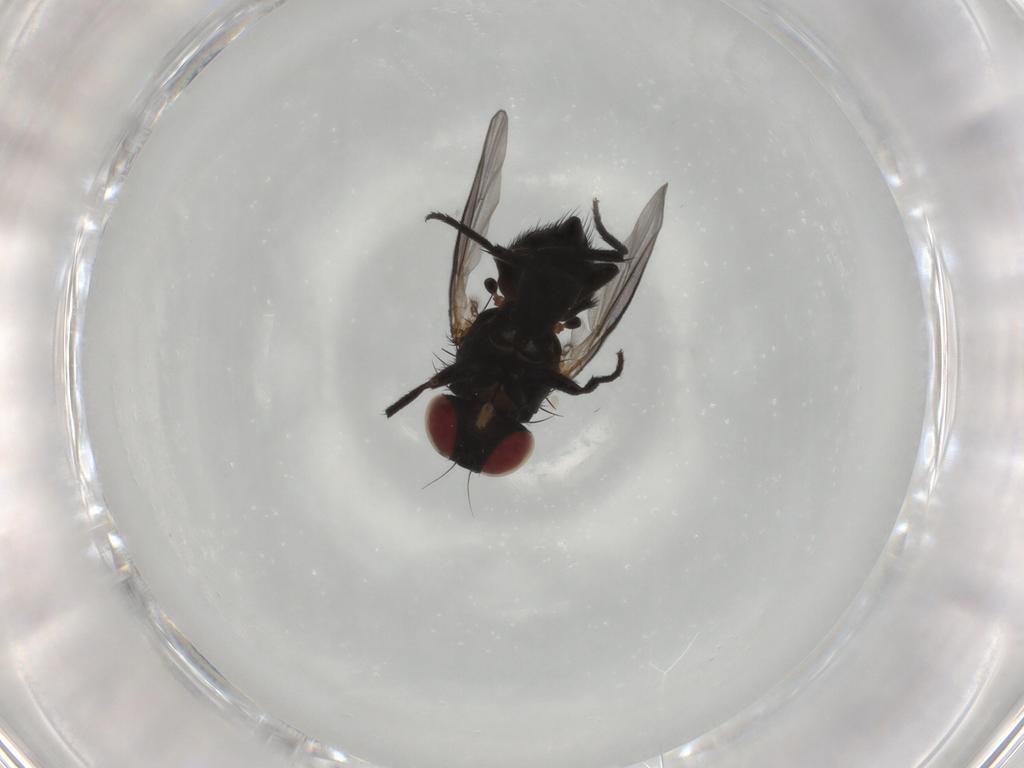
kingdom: Animalia
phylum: Arthropoda
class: Insecta
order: Diptera
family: Agromyzidae
